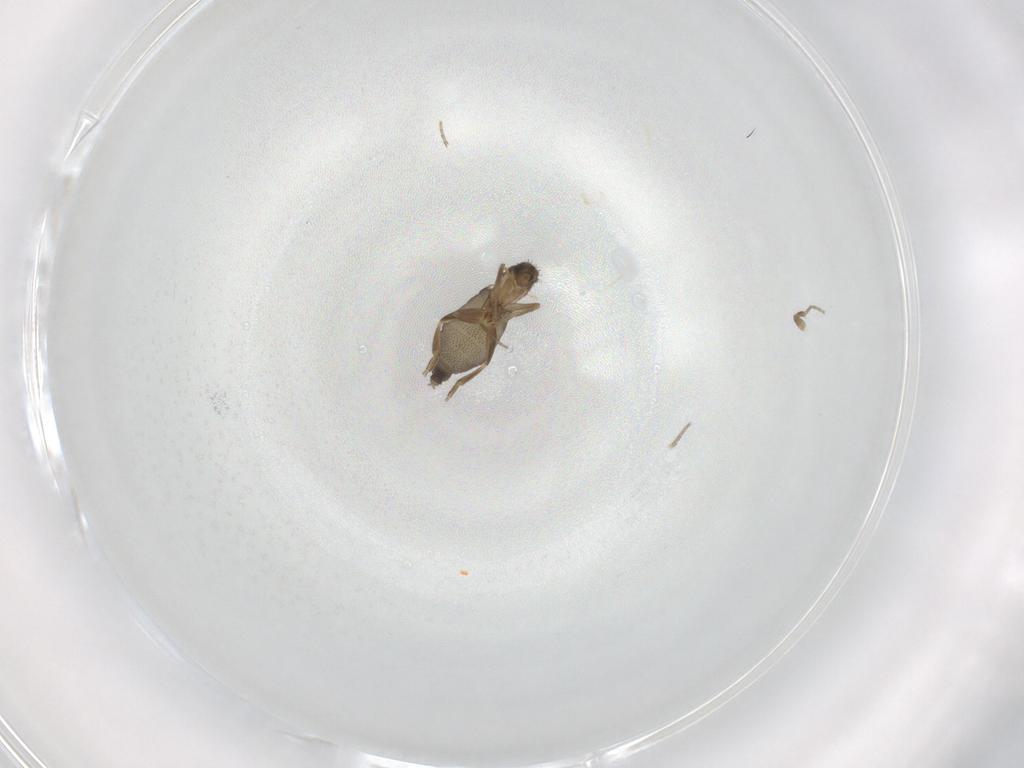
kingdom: Animalia
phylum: Arthropoda
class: Insecta
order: Diptera
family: Phoridae
